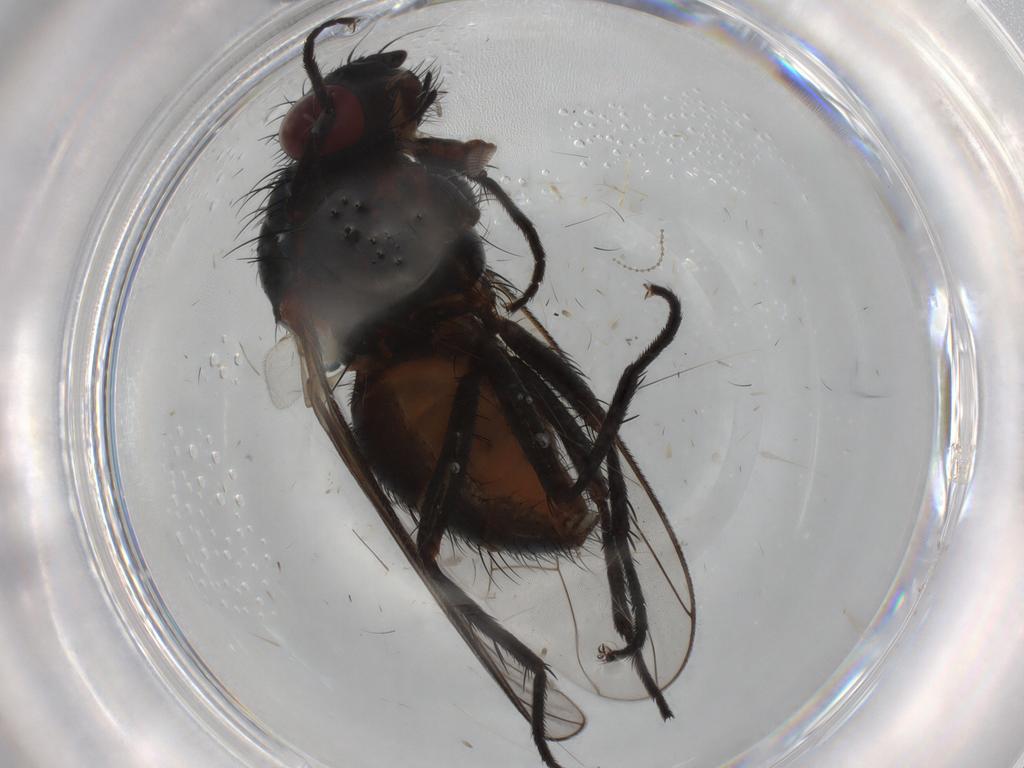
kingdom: Animalia
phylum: Arthropoda
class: Insecta
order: Diptera
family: Anthomyiidae
